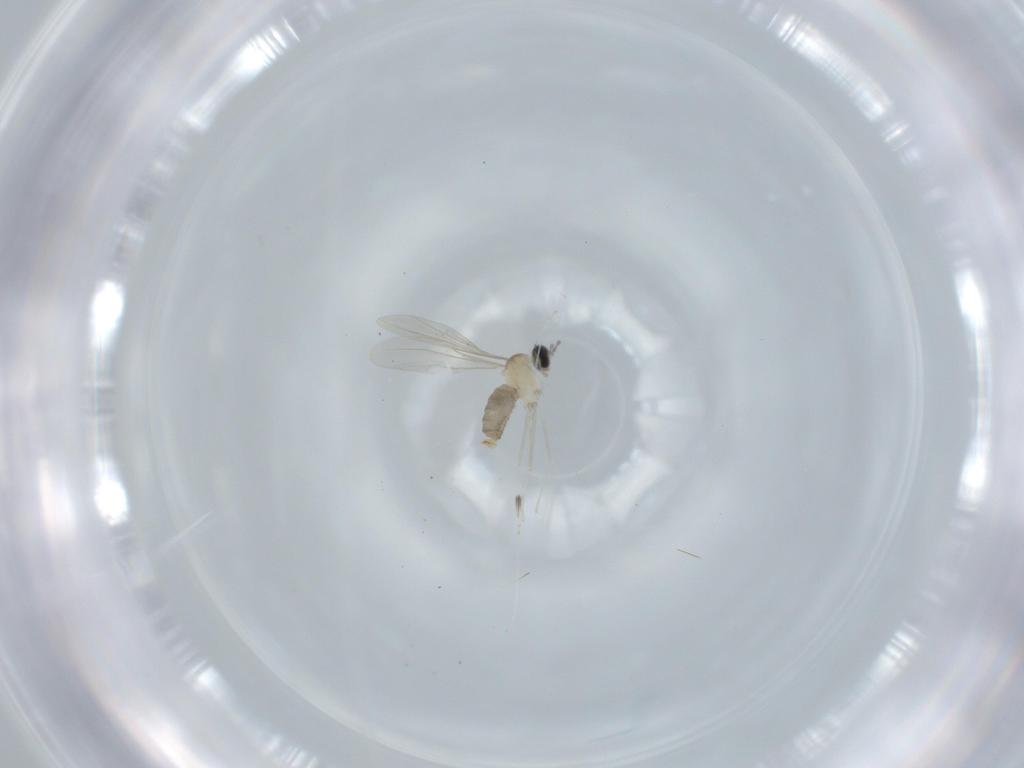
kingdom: Animalia
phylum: Arthropoda
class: Insecta
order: Diptera
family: Cecidomyiidae
